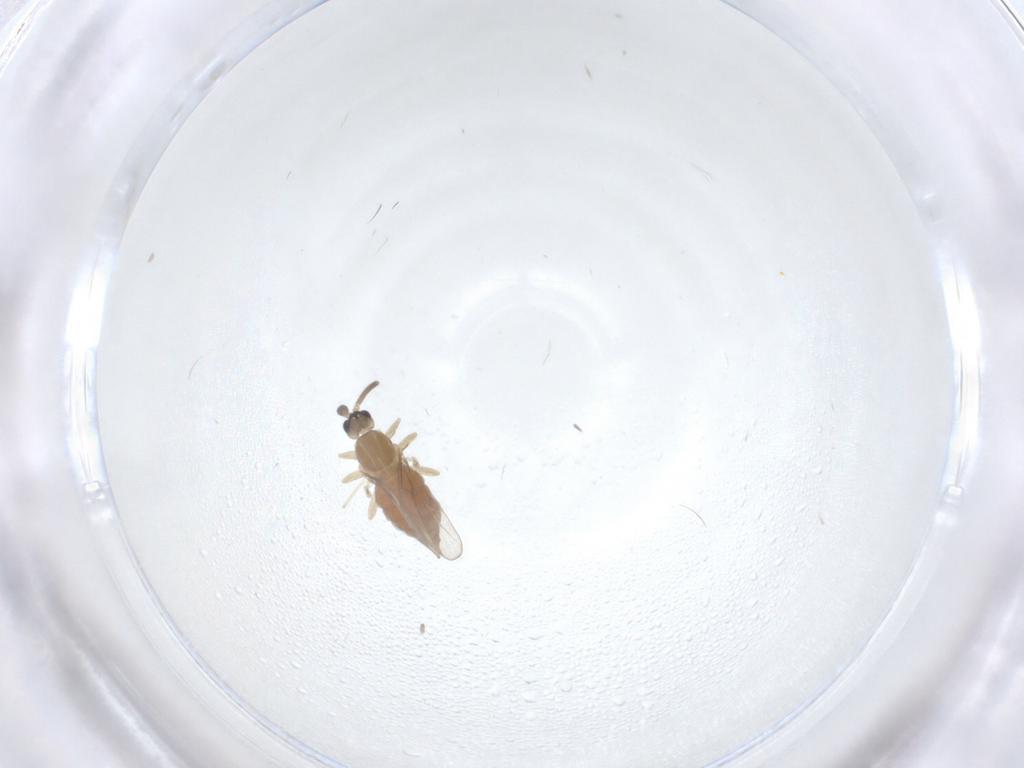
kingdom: Animalia
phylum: Arthropoda
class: Insecta
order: Diptera
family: Cecidomyiidae
